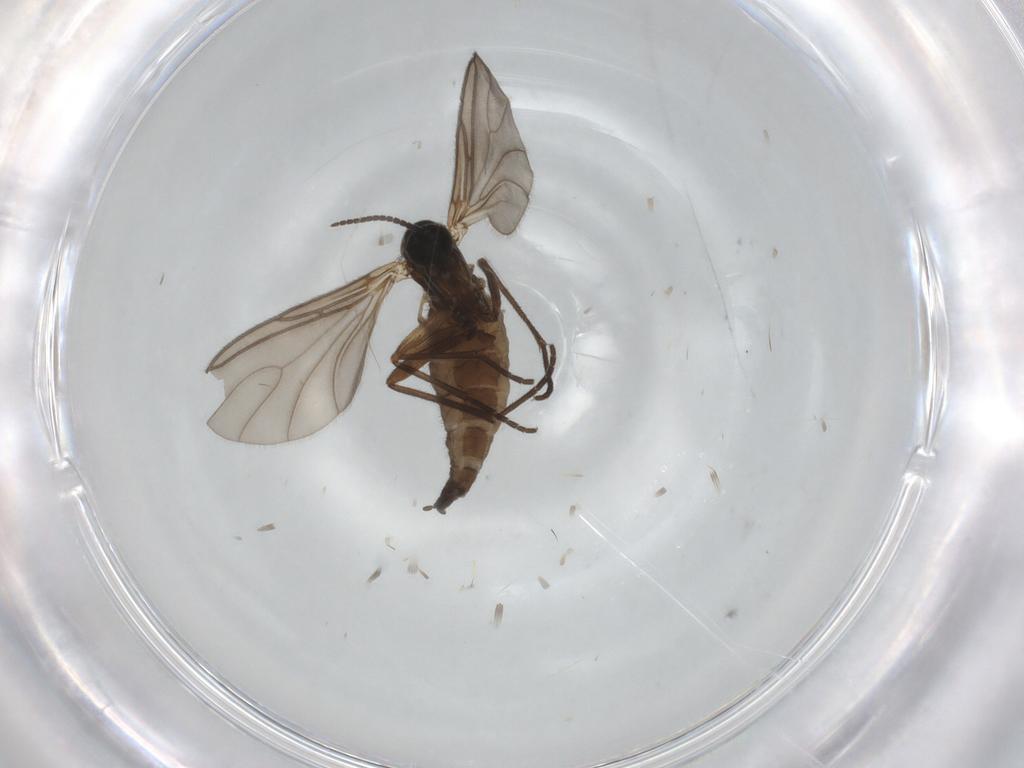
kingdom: Animalia
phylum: Arthropoda
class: Insecta
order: Diptera
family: Sciaridae
